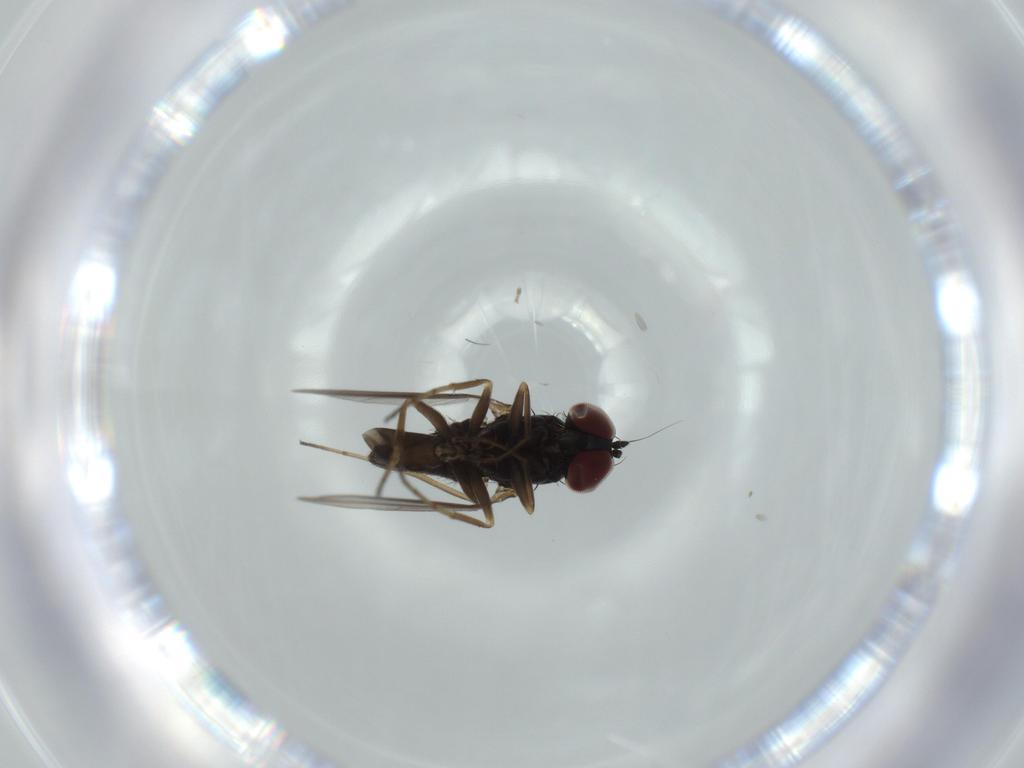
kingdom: Animalia
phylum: Arthropoda
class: Insecta
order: Diptera
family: Dolichopodidae
